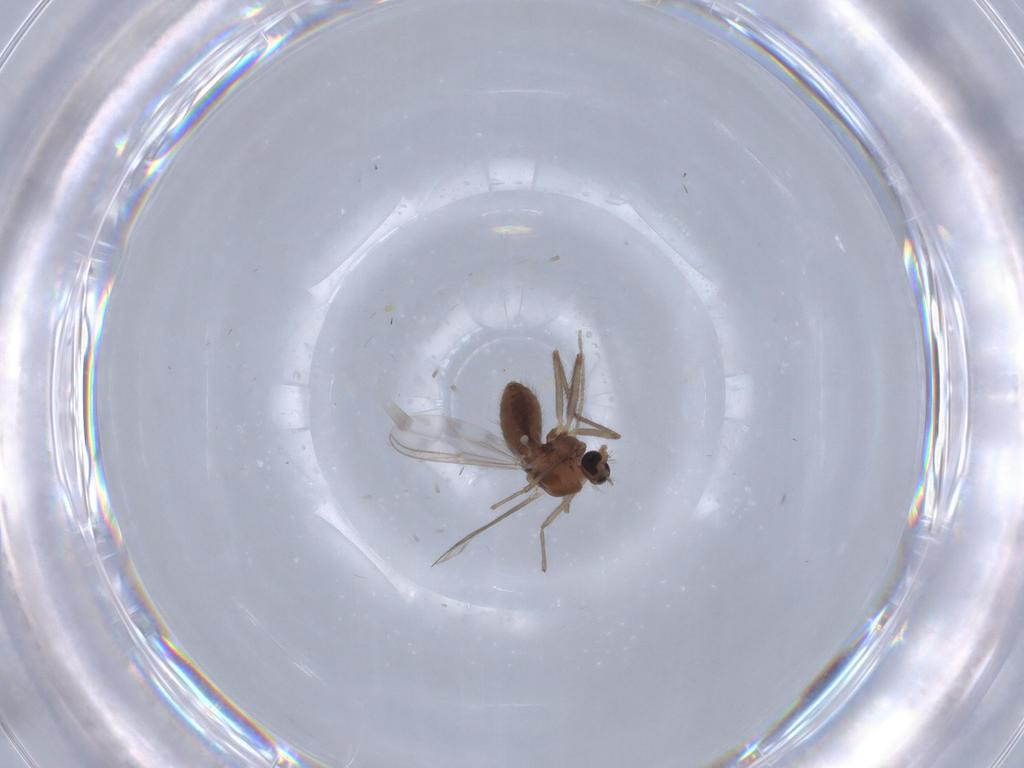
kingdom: Animalia
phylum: Arthropoda
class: Insecta
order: Diptera
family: Chironomidae
